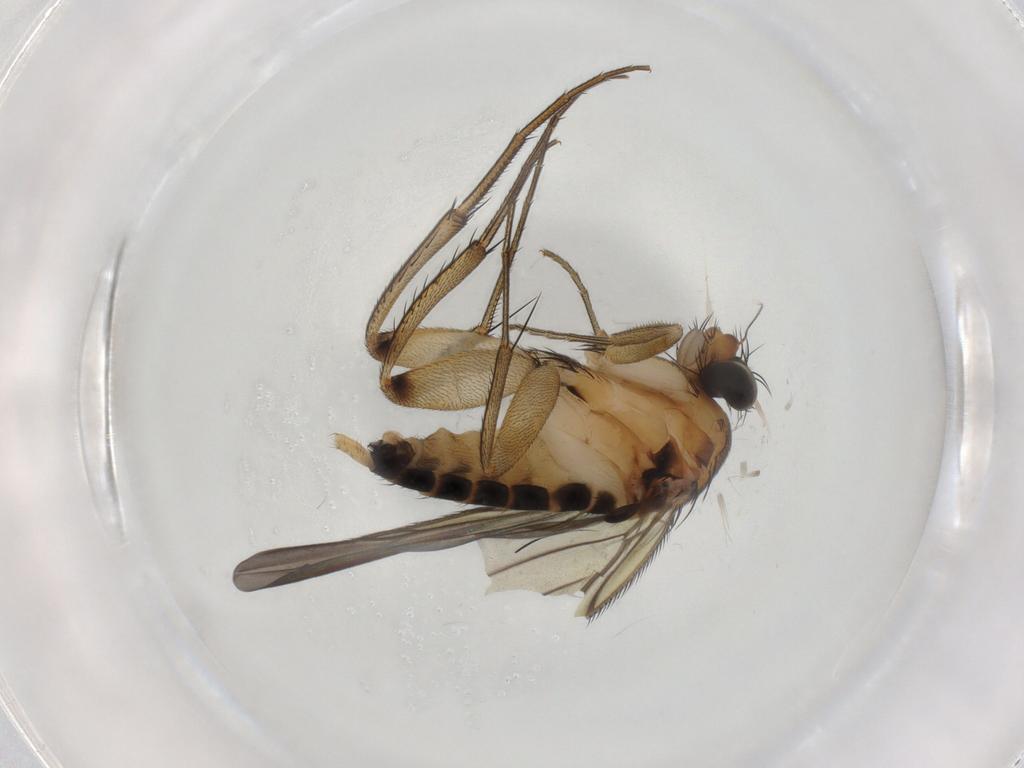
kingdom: Animalia
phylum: Arthropoda
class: Insecta
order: Diptera
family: Phoridae
